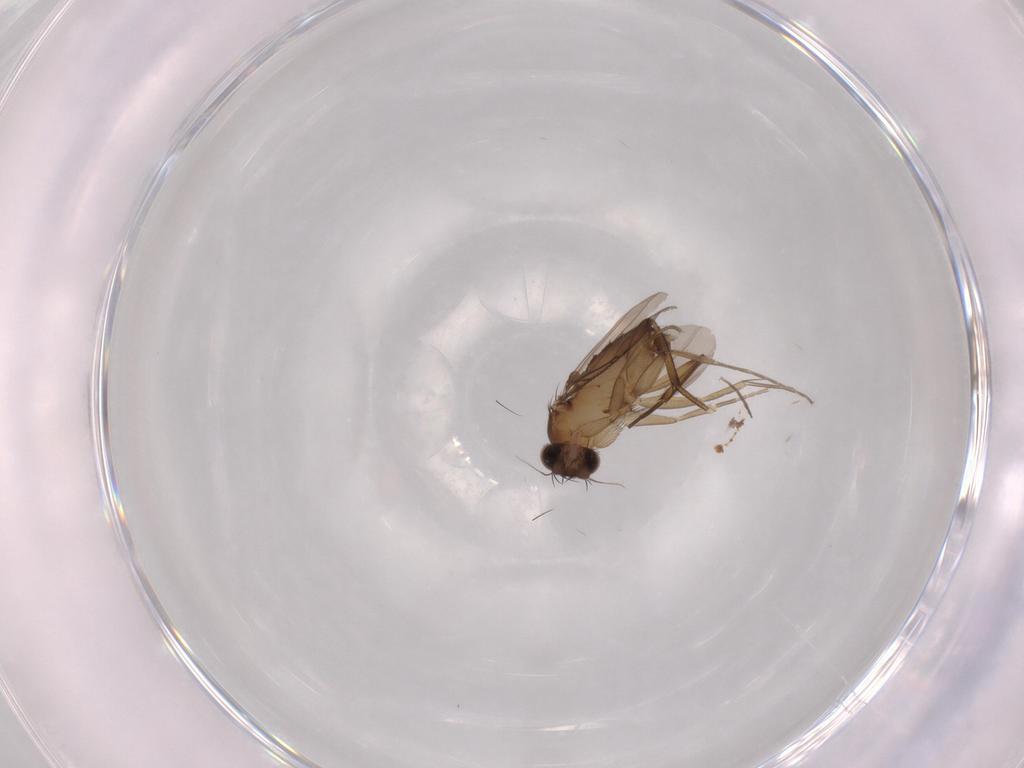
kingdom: Animalia
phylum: Arthropoda
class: Insecta
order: Diptera
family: Phoridae
